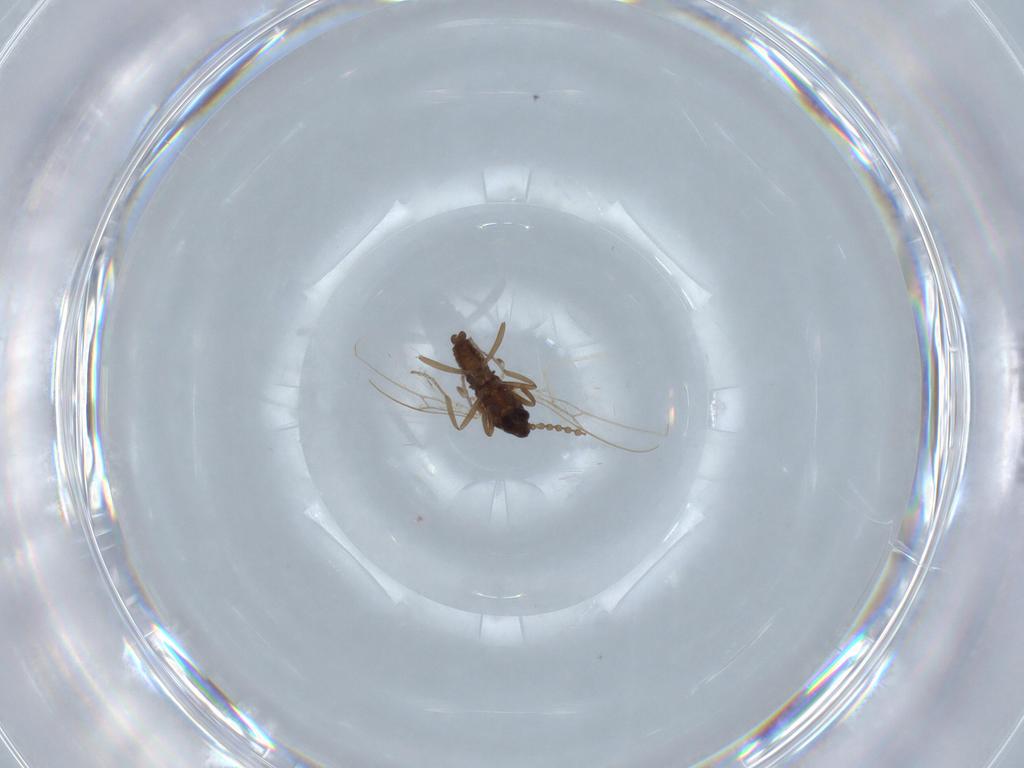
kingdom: Animalia
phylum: Arthropoda
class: Insecta
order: Diptera
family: Cecidomyiidae
